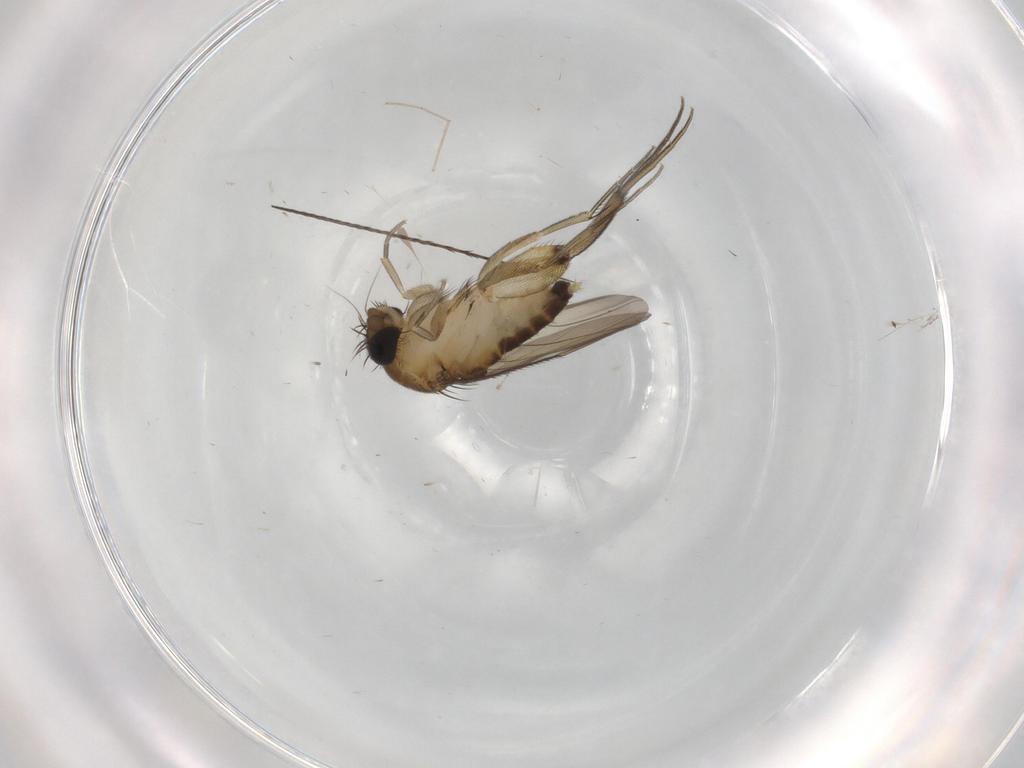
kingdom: Animalia
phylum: Arthropoda
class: Insecta
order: Diptera
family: Phoridae
